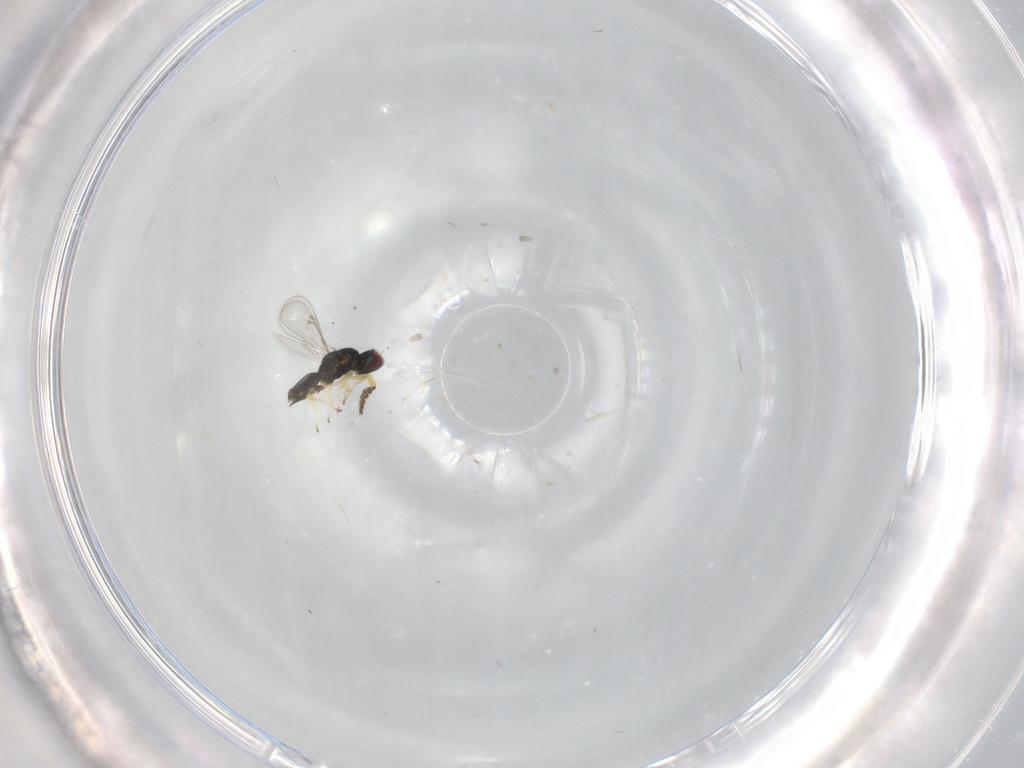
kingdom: Animalia
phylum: Arthropoda
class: Insecta
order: Hymenoptera
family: Eulophidae
